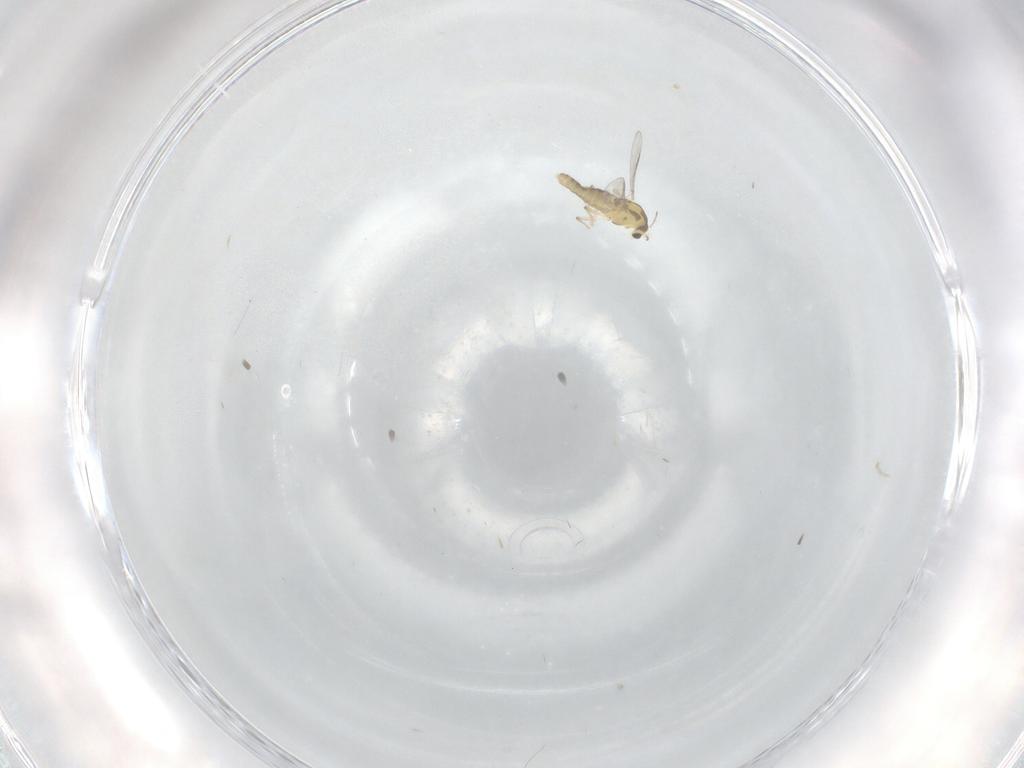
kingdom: Animalia
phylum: Arthropoda
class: Insecta
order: Diptera
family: Chironomidae
